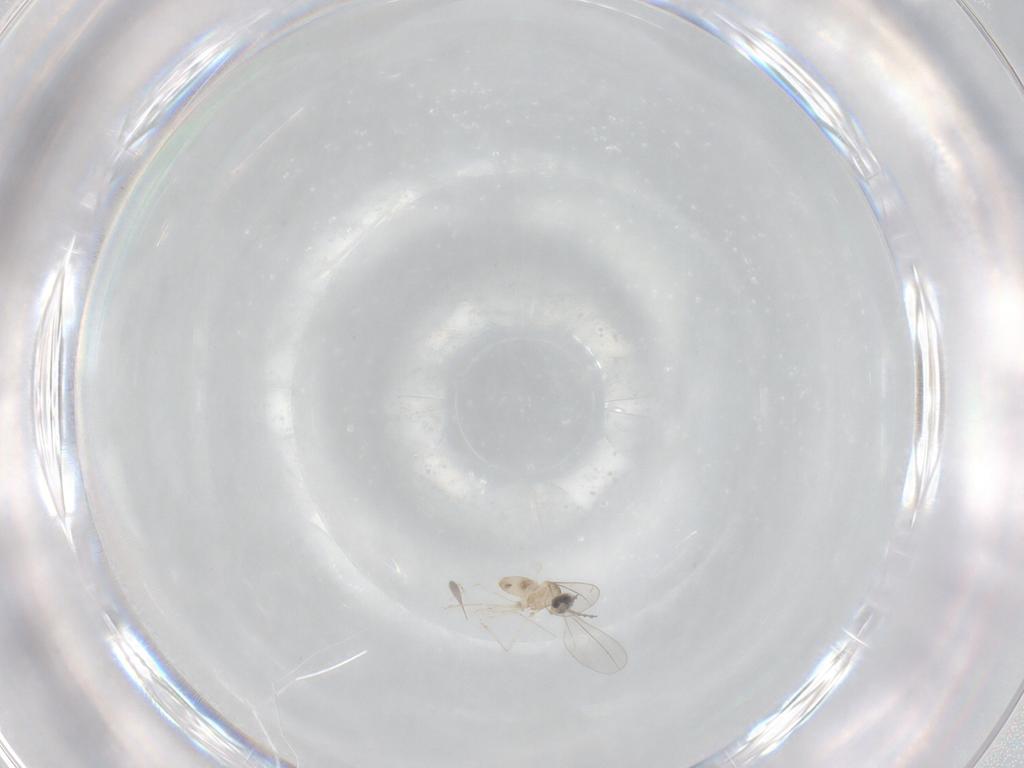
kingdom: Animalia
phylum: Arthropoda
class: Insecta
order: Diptera
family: Cecidomyiidae
